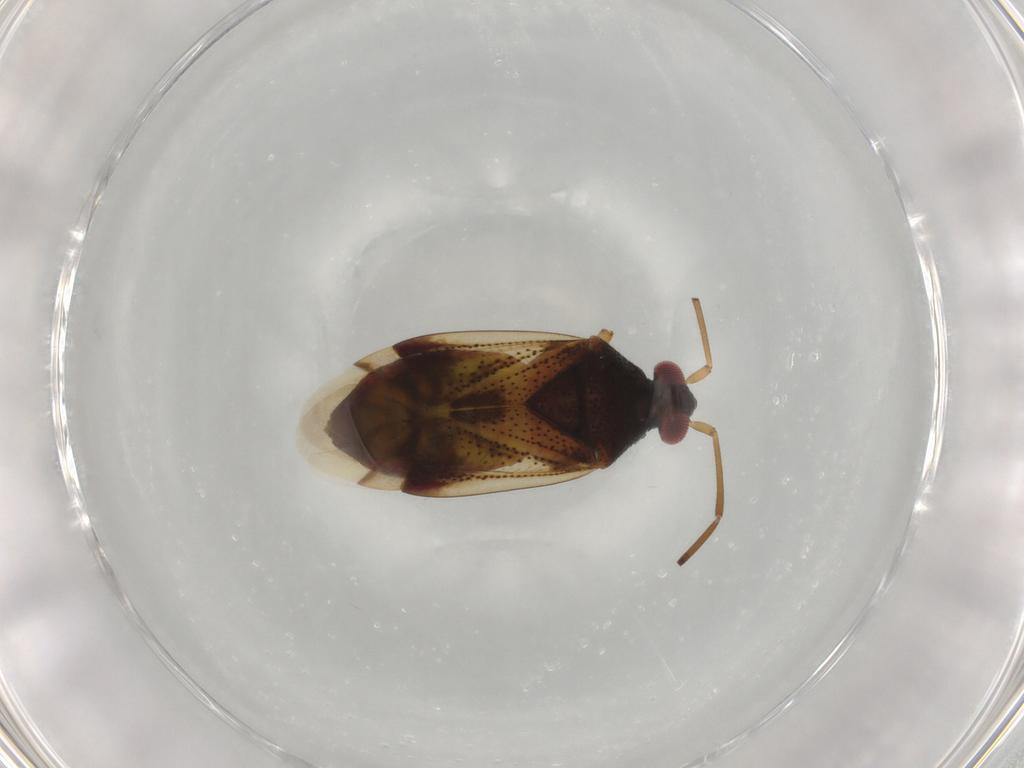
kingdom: Animalia
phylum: Arthropoda
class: Insecta
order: Hemiptera
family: Miridae
